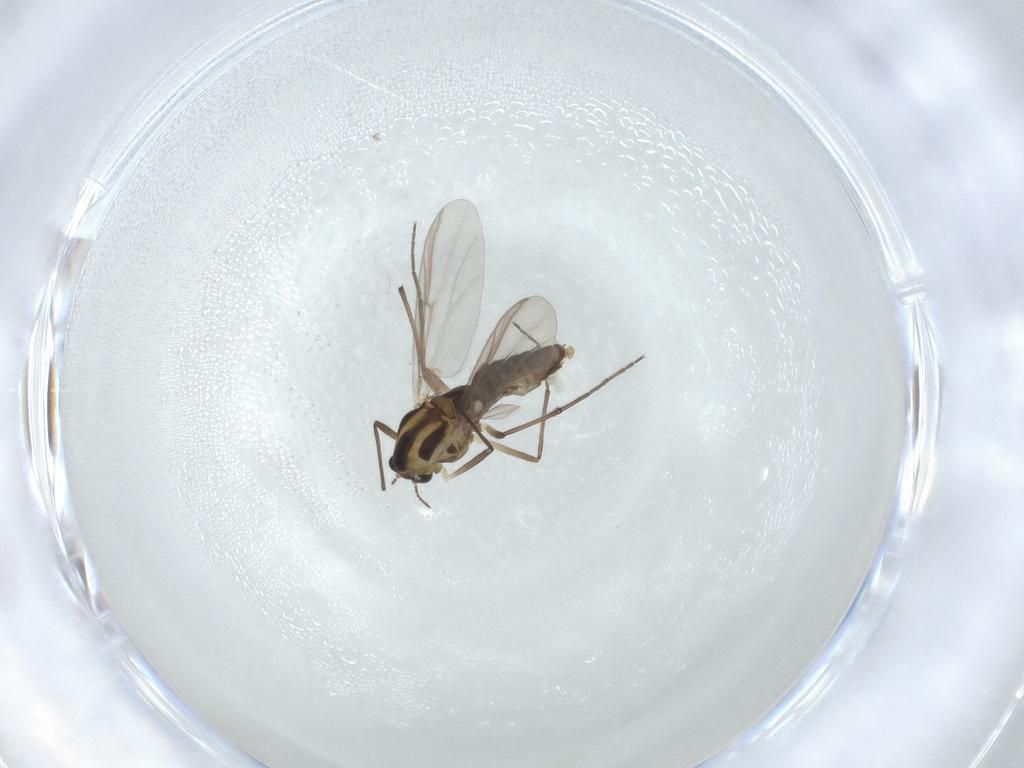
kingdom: Animalia
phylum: Arthropoda
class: Insecta
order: Diptera
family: Chironomidae
